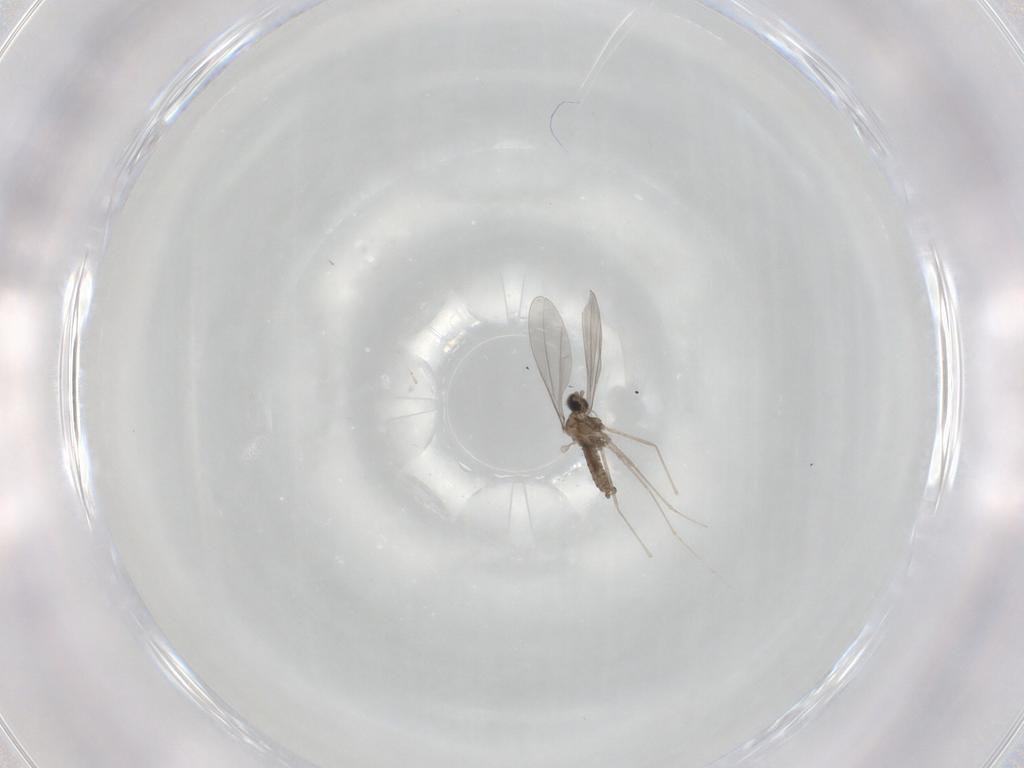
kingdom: Animalia
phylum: Arthropoda
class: Insecta
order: Diptera
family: Cecidomyiidae
